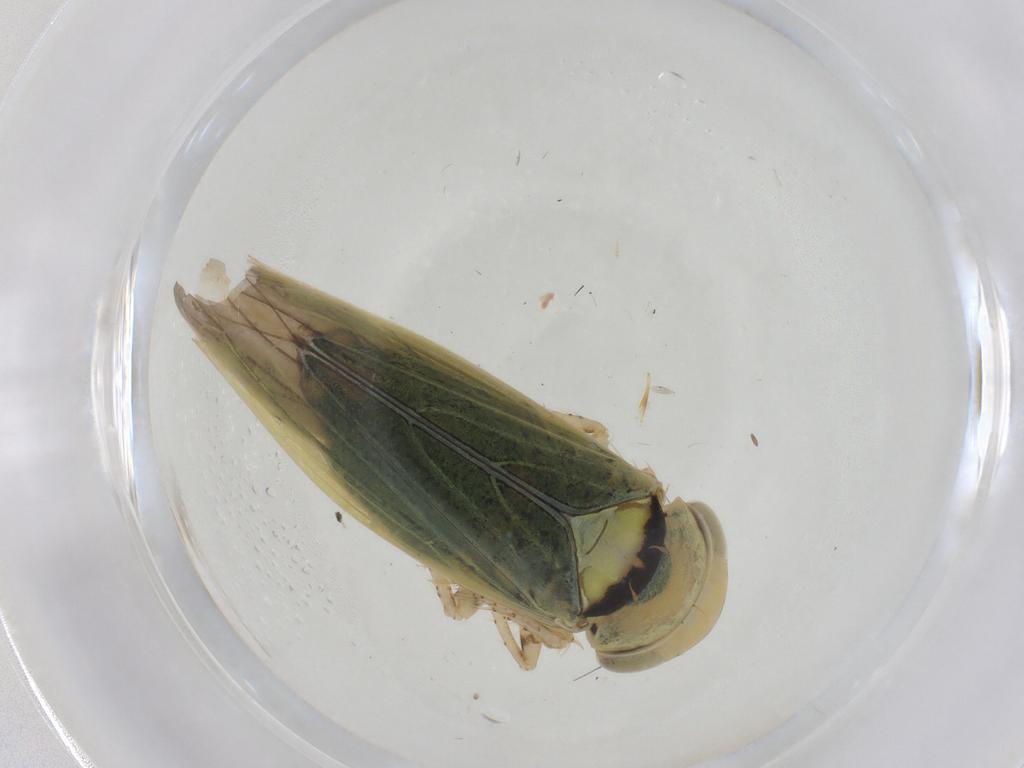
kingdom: Animalia
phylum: Arthropoda
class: Insecta
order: Hemiptera
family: Cicadellidae
